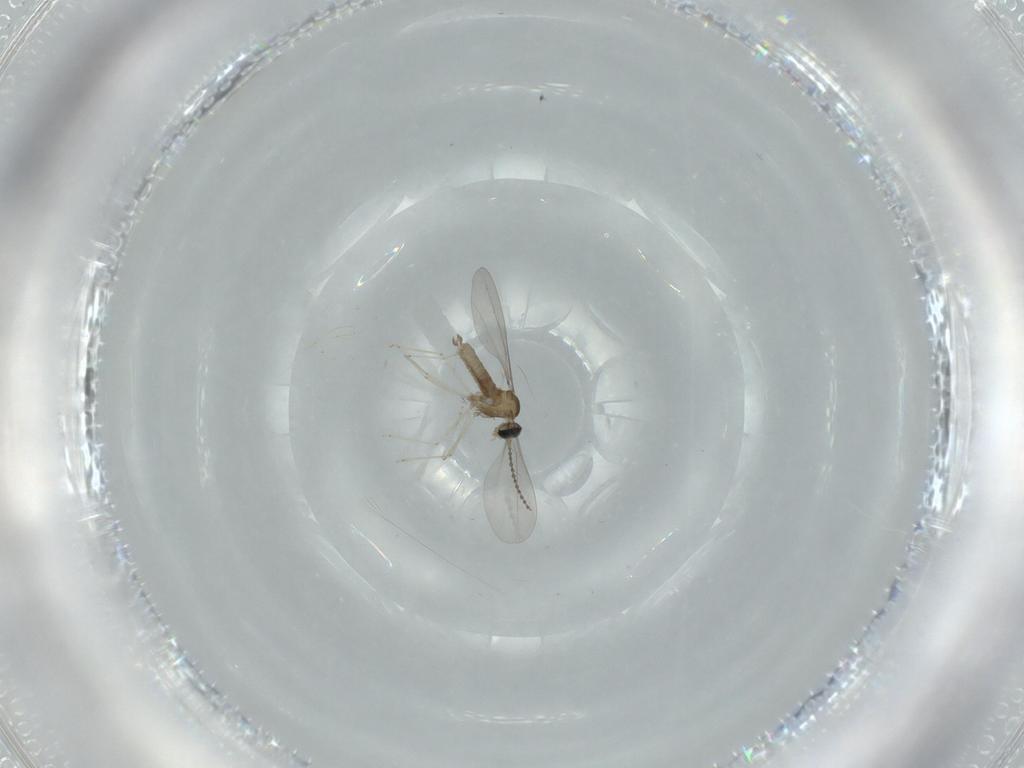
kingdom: Animalia
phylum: Arthropoda
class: Insecta
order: Diptera
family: Cecidomyiidae
